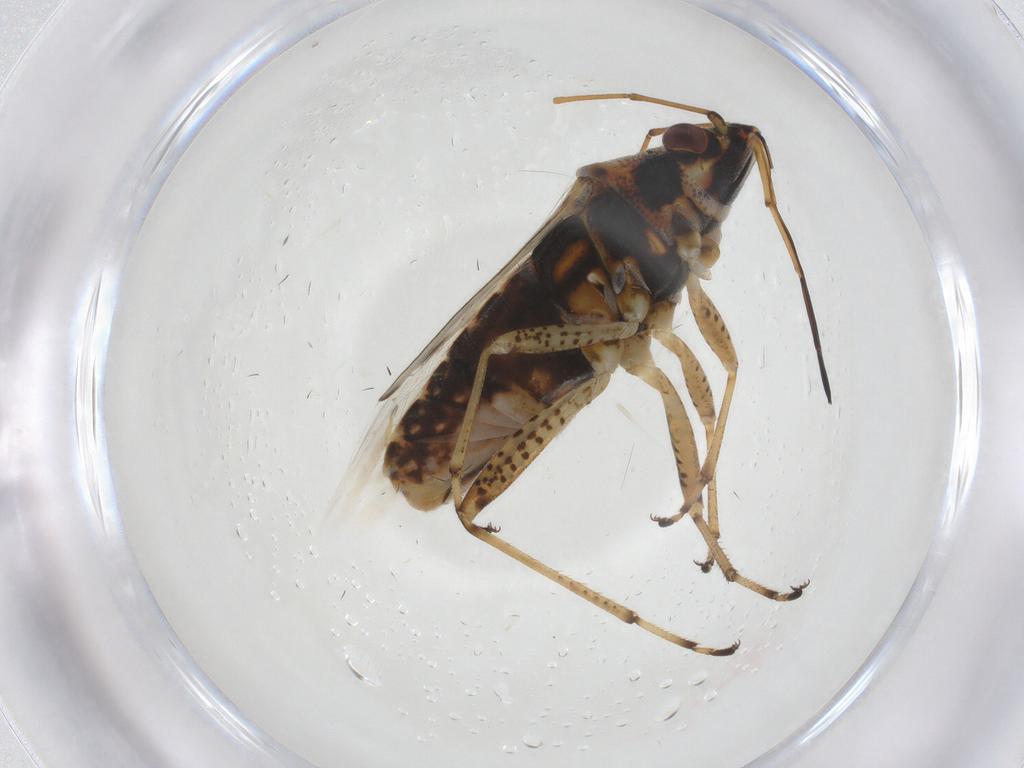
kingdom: Animalia
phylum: Arthropoda
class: Insecta
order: Hemiptera
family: Lygaeidae
